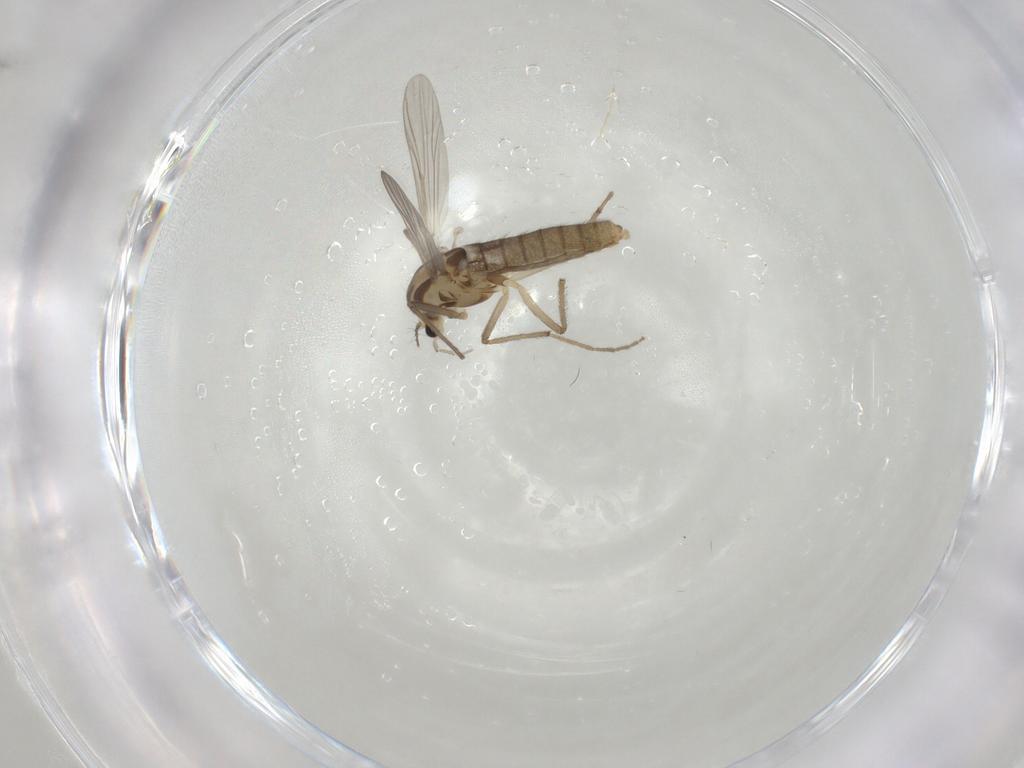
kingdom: Animalia
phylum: Arthropoda
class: Insecta
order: Diptera
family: Chironomidae
